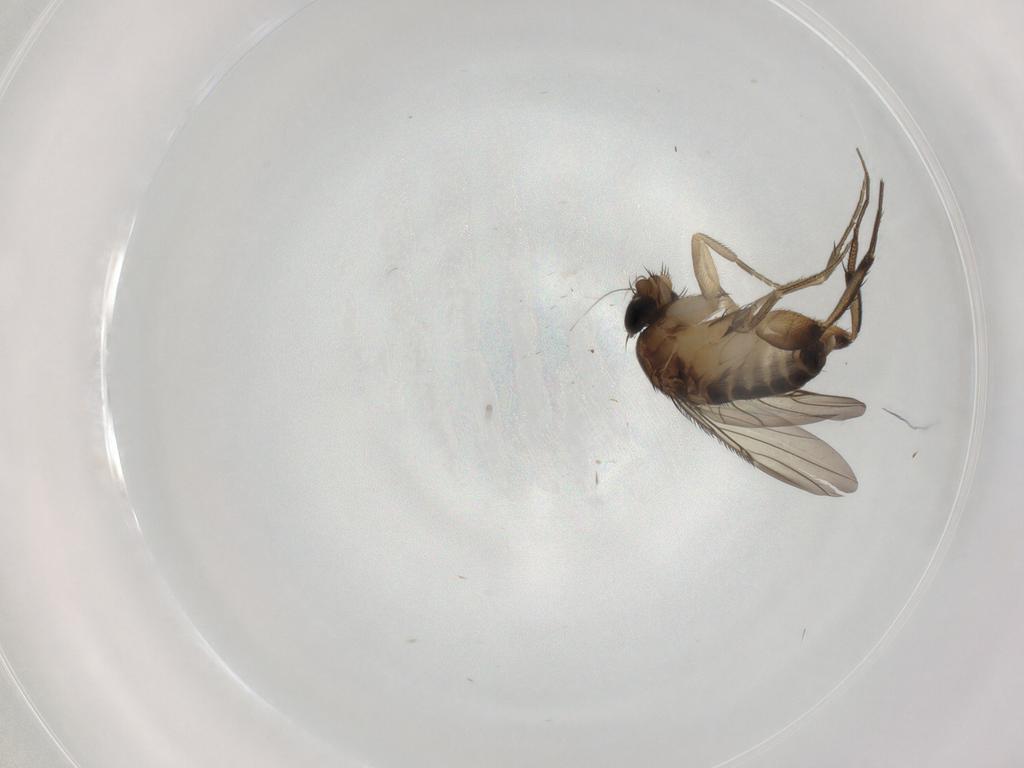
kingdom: Animalia
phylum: Arthropoda
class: Insecta
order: Diptera
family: Phoridae
